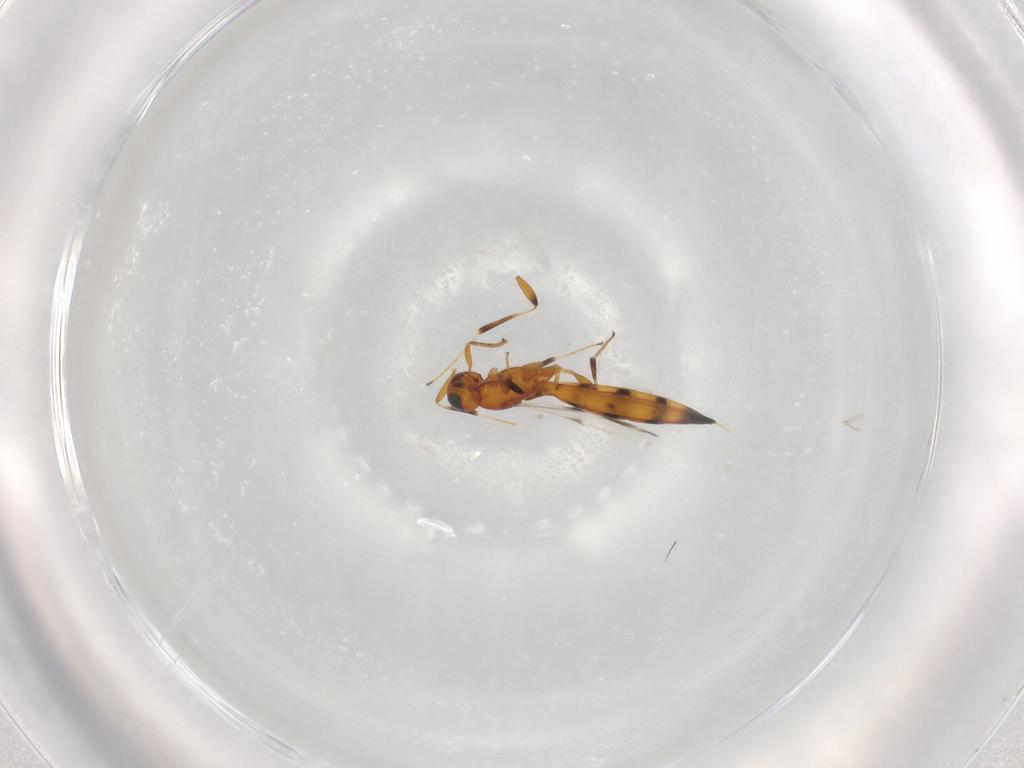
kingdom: Animalia
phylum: Arthropoda
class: Insecta
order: Hymenoptera
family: Scelionidae
